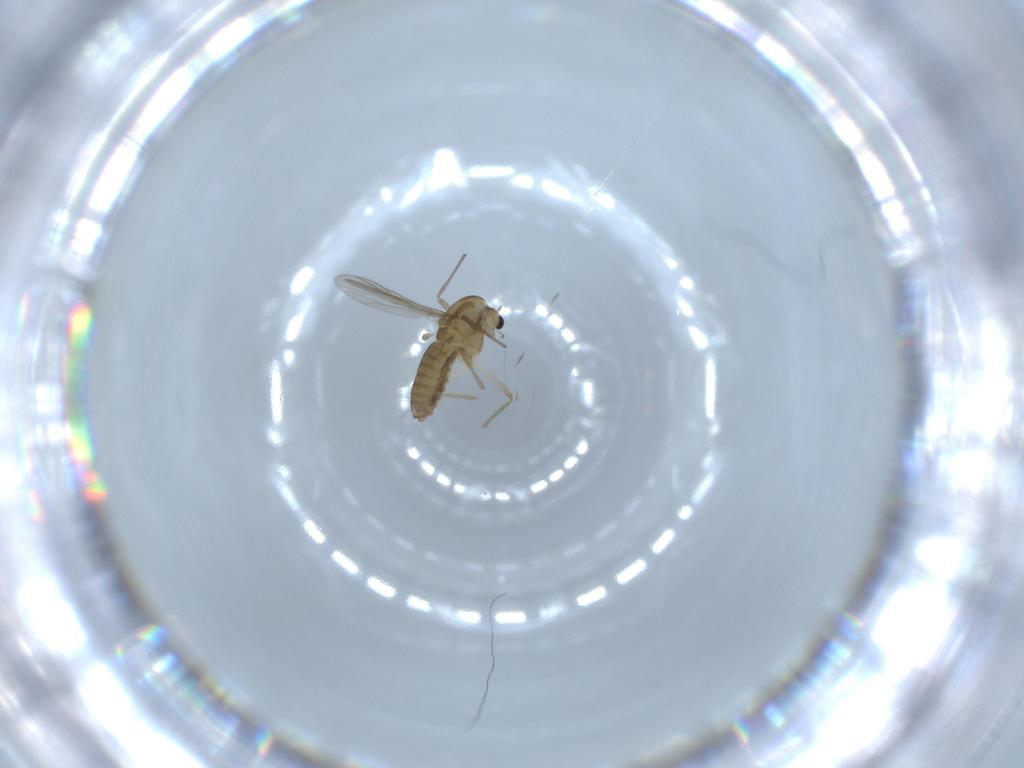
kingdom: Animalia
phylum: Arthropoda
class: Insecta
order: Diptera
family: Chironomidae
